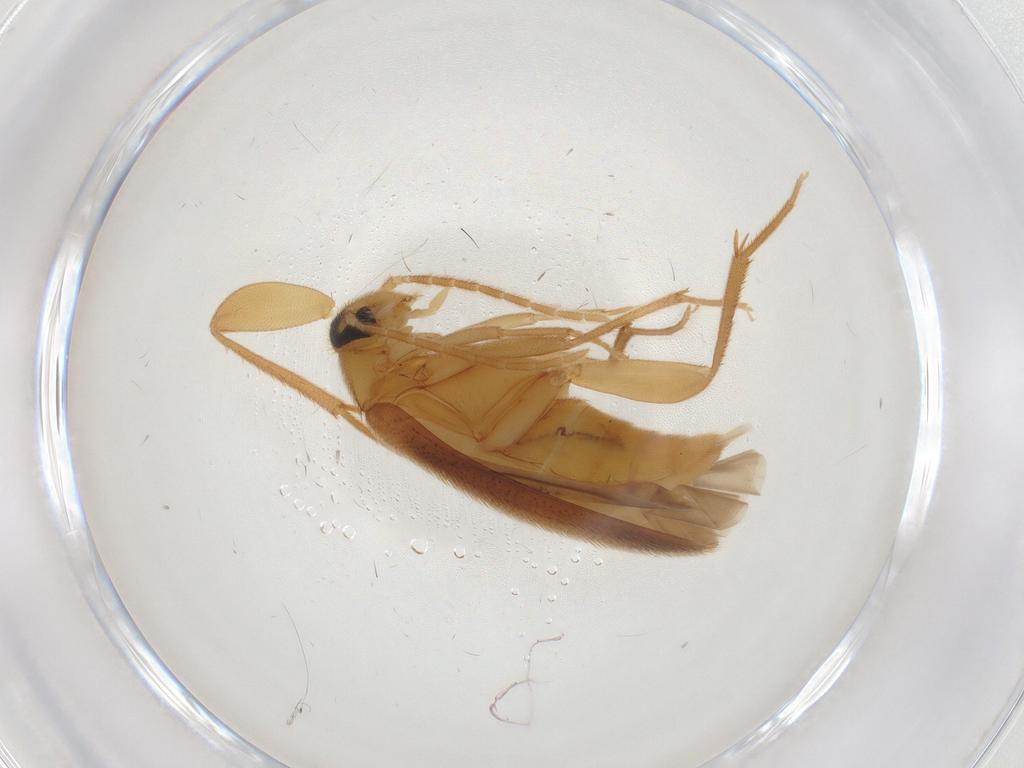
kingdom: Animalia
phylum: Arthropoda
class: Insecta
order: Coleoptera
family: Scraptiidae
